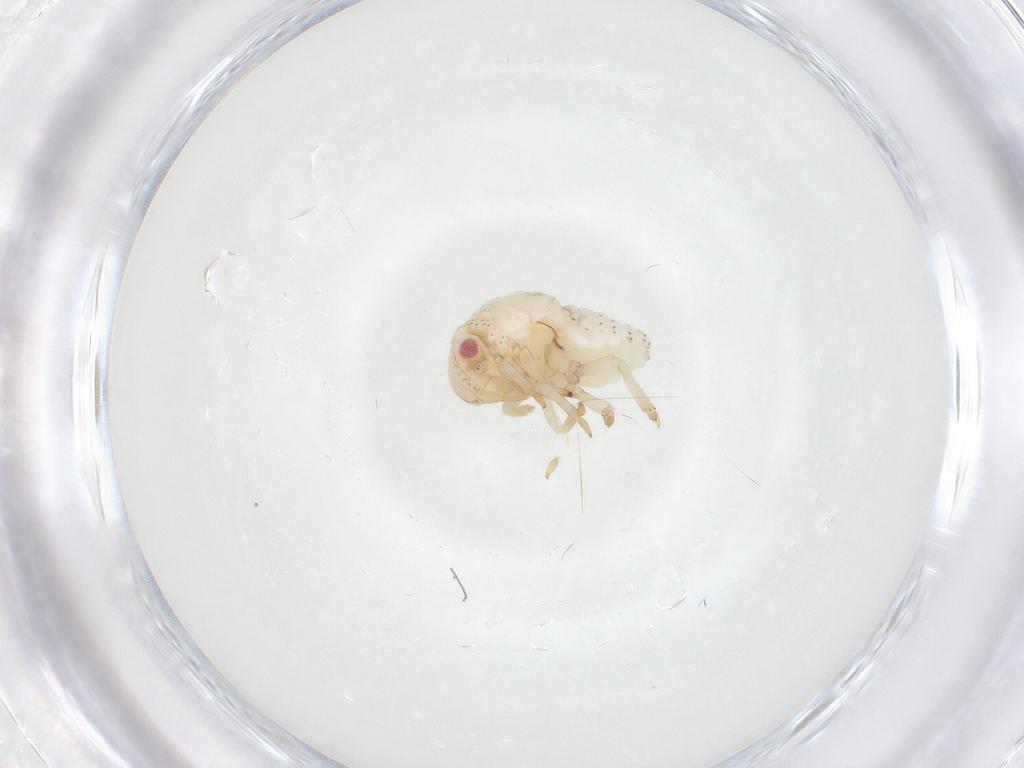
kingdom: Animalia
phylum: Arthropoda
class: Insecta
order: Hemiptera
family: Acanaloniidae
